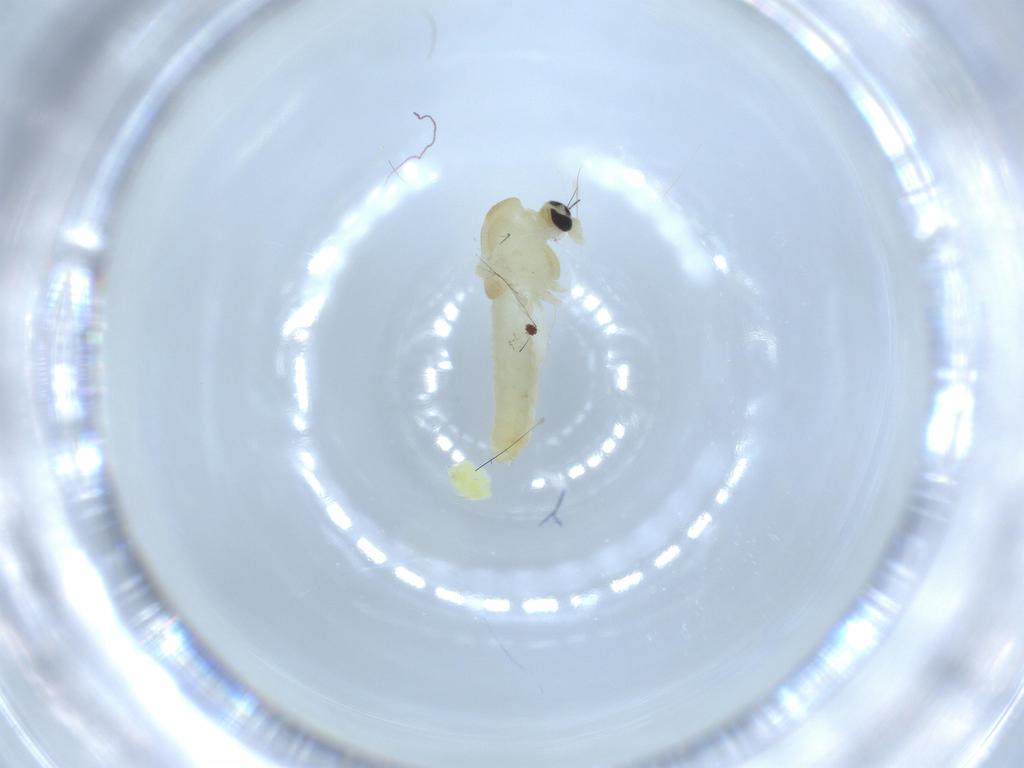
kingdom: Animalia
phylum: Arthropoda
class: Insecta
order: Diptera
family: Chironomidae
